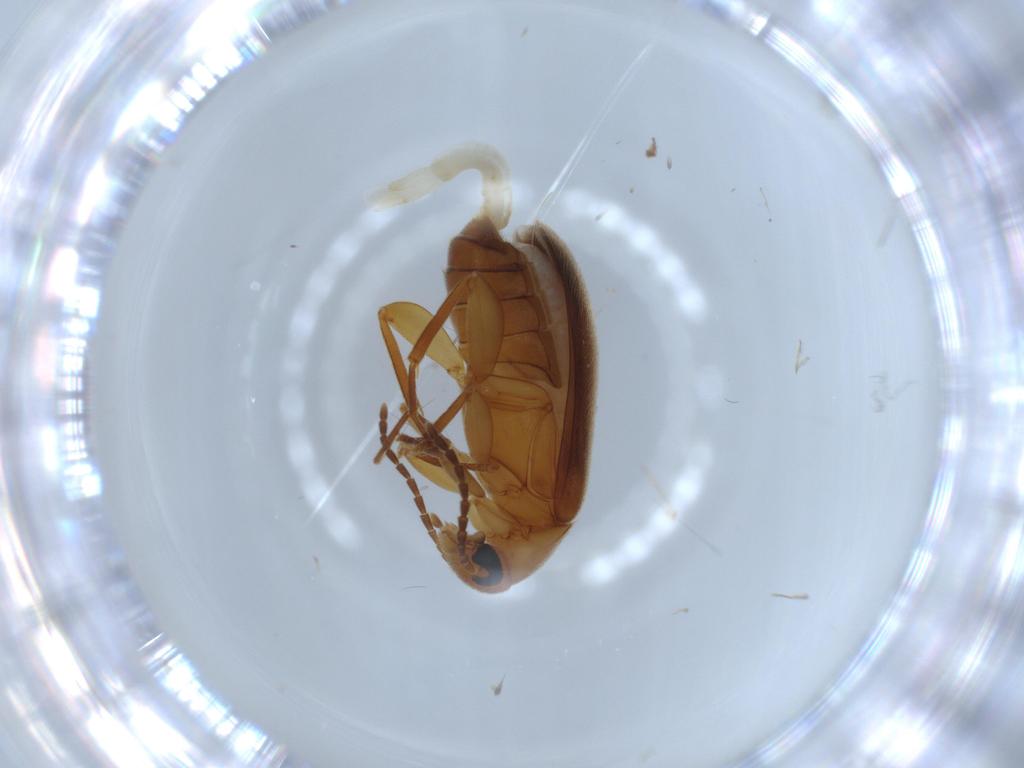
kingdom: Animalia
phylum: Arthropoda
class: Insecta
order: Coleoptera
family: Scraptiidae
